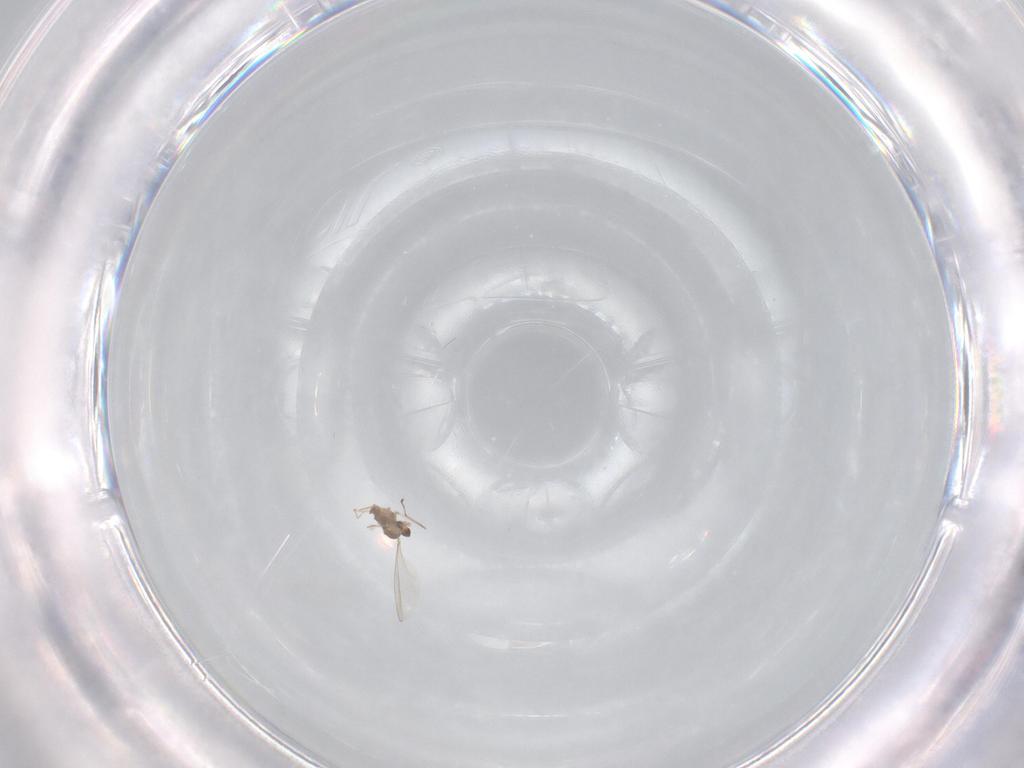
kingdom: Animalia
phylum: Arthropoda
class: Insecta
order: Diptera
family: Cecidomyiidae
